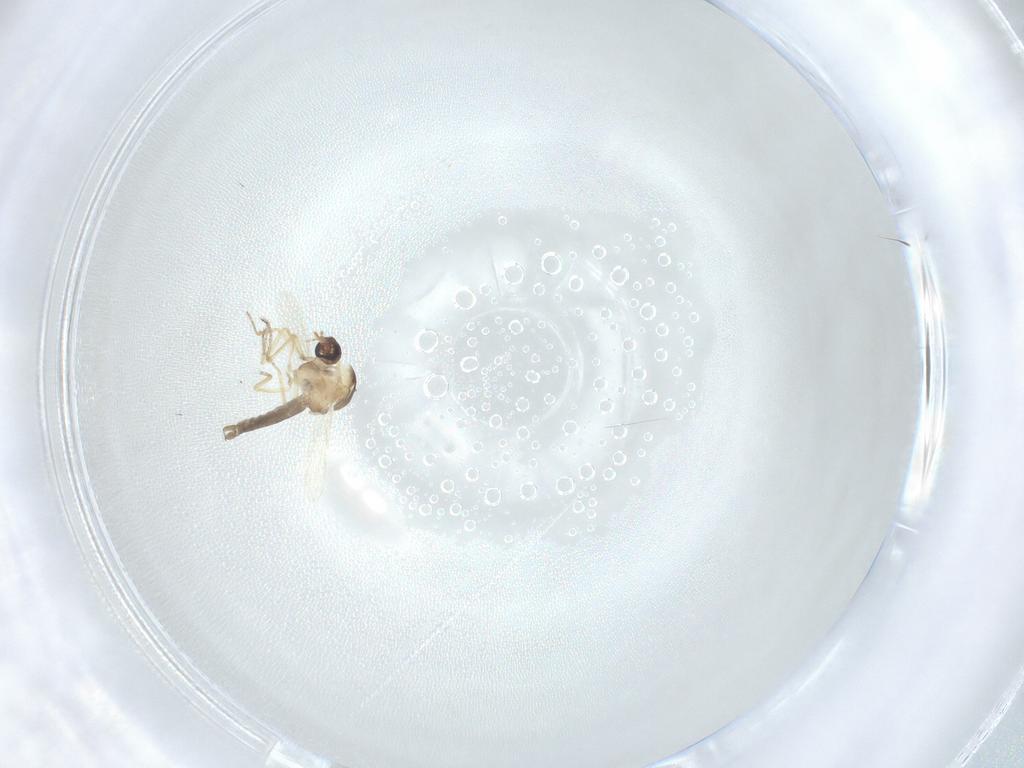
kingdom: Animalia
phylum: Arthropoda
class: Insecta
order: Diptera
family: Ceratopogonidae
